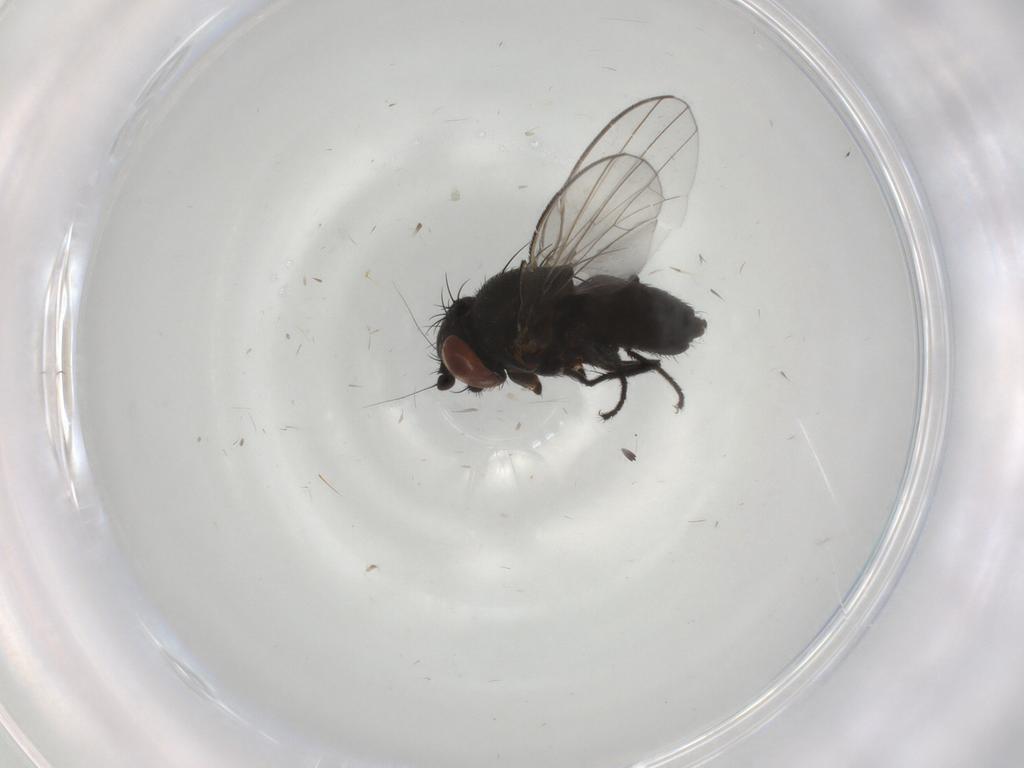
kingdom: Animalia
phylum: Arthropoda
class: Insecta
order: Diptera
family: Milichiidae
